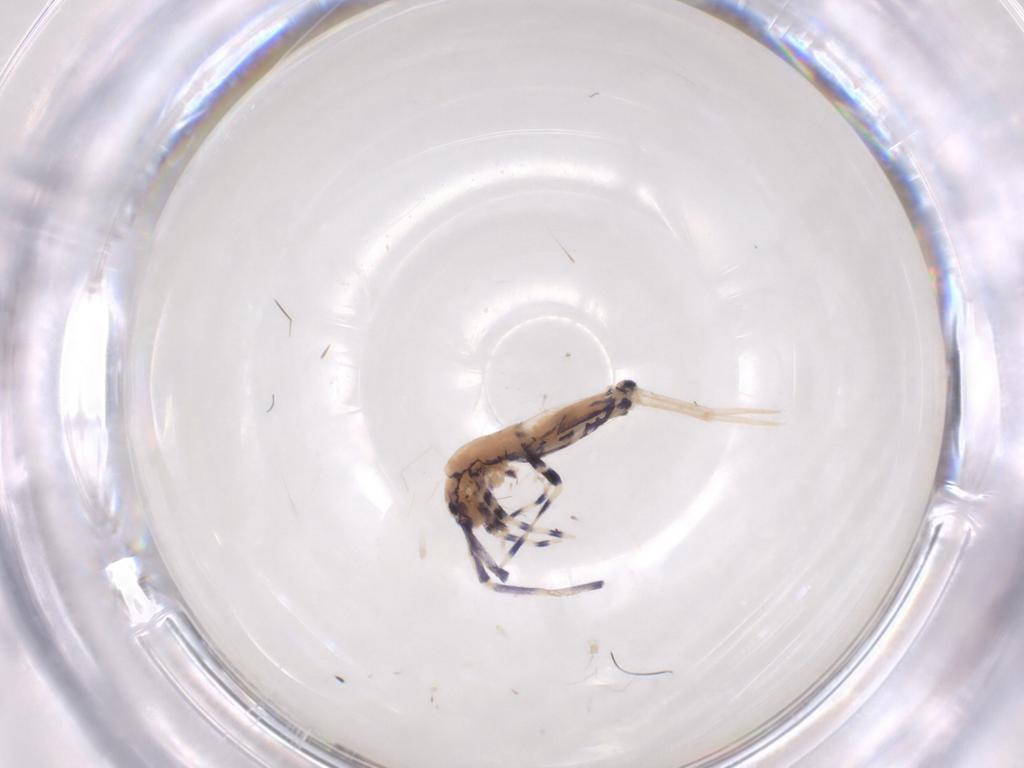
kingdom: Animalia
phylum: Arthropoda
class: Collembola
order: Entomobryomorpha
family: Paronellidae
